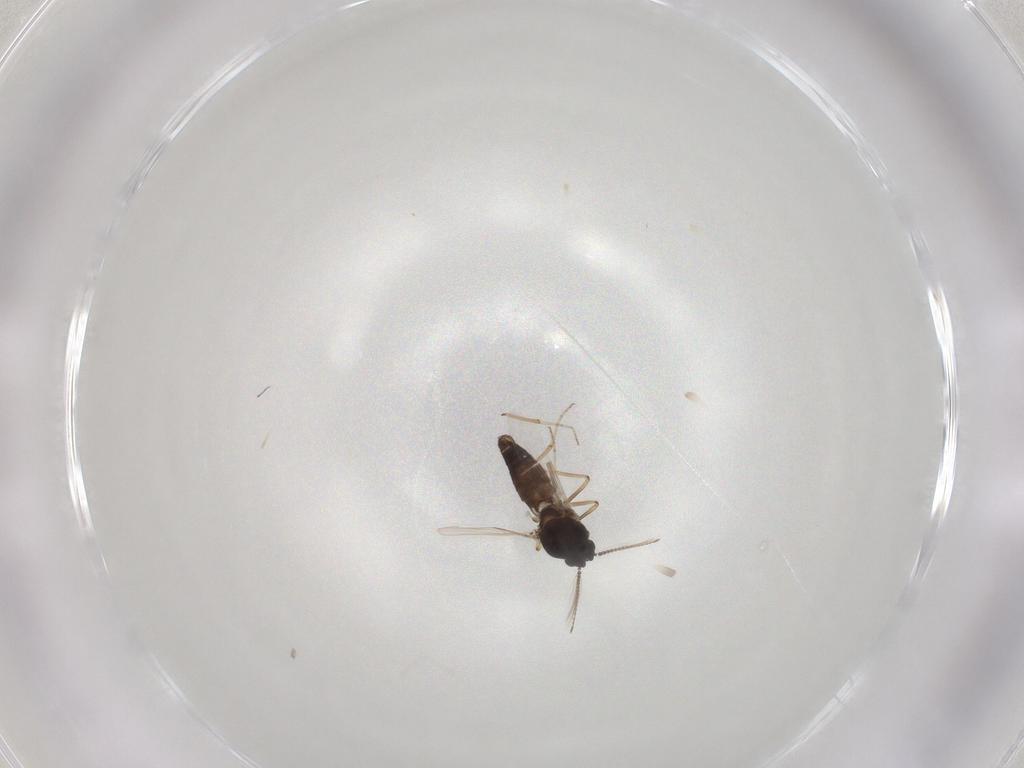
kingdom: Animalia
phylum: Arthropoda
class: Insecta
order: Diptera
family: Ceratopogonidae
